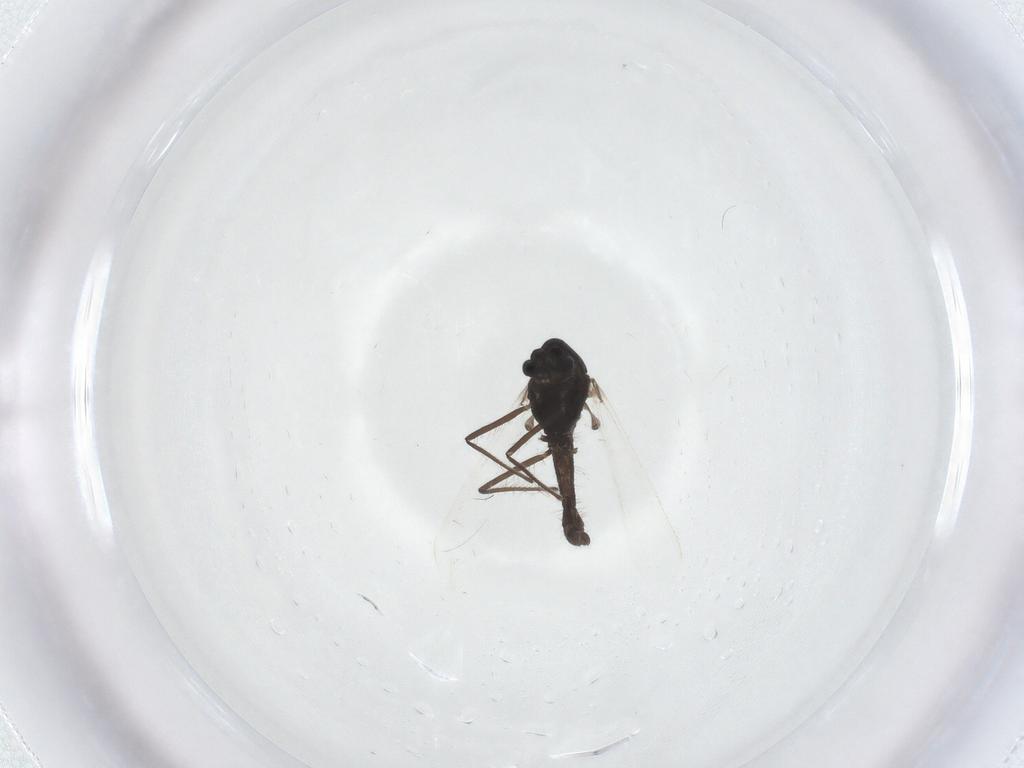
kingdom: Animalia
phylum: Arthropoda
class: Insecta
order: Diptera
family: Chironomidae
